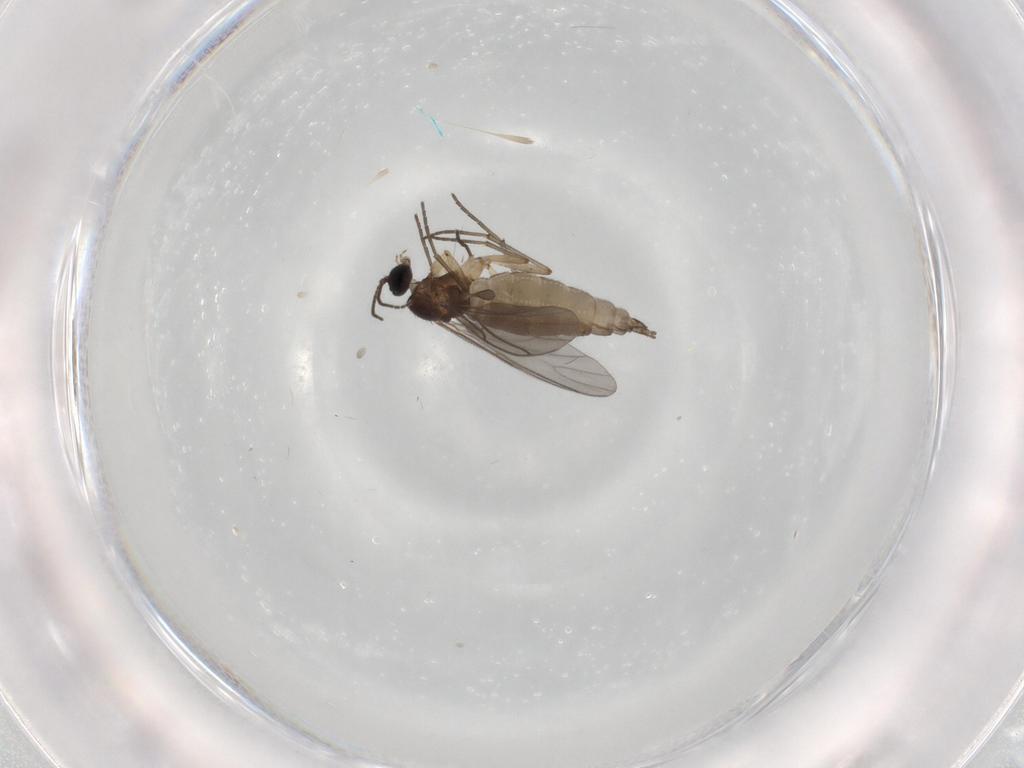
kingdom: Animalia
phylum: Arthropoda
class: Insecta
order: Diptera
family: Sciaridae
